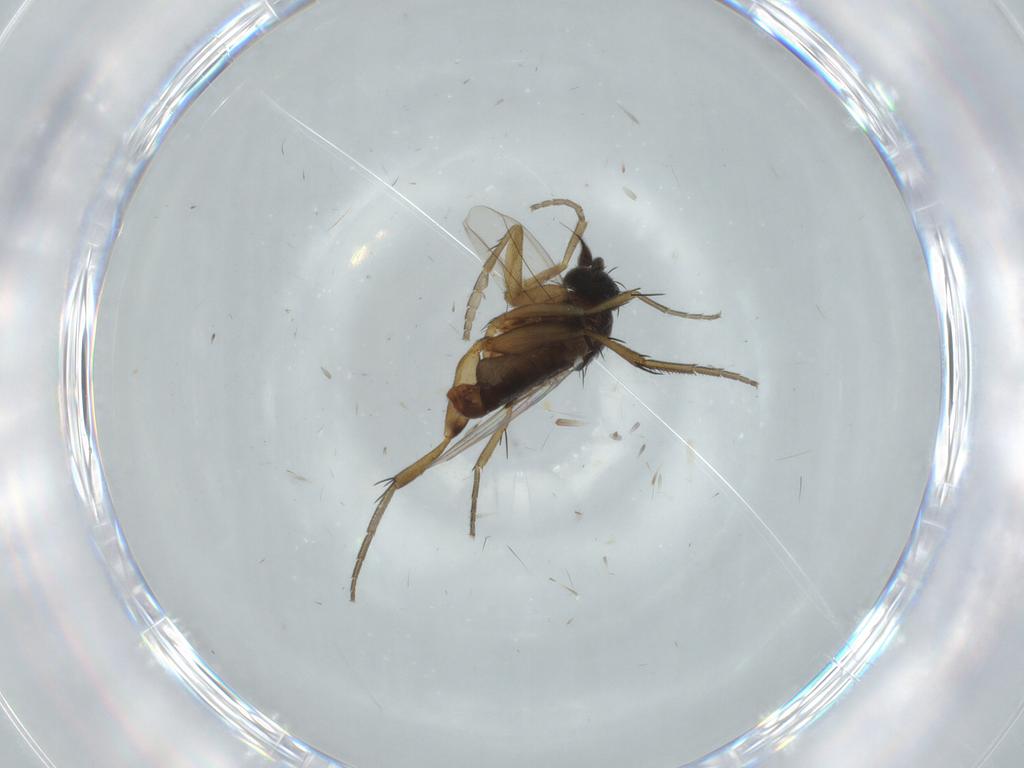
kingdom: Animalia
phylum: Arthropoda
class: Insecta
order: Diptera
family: Phoridae
